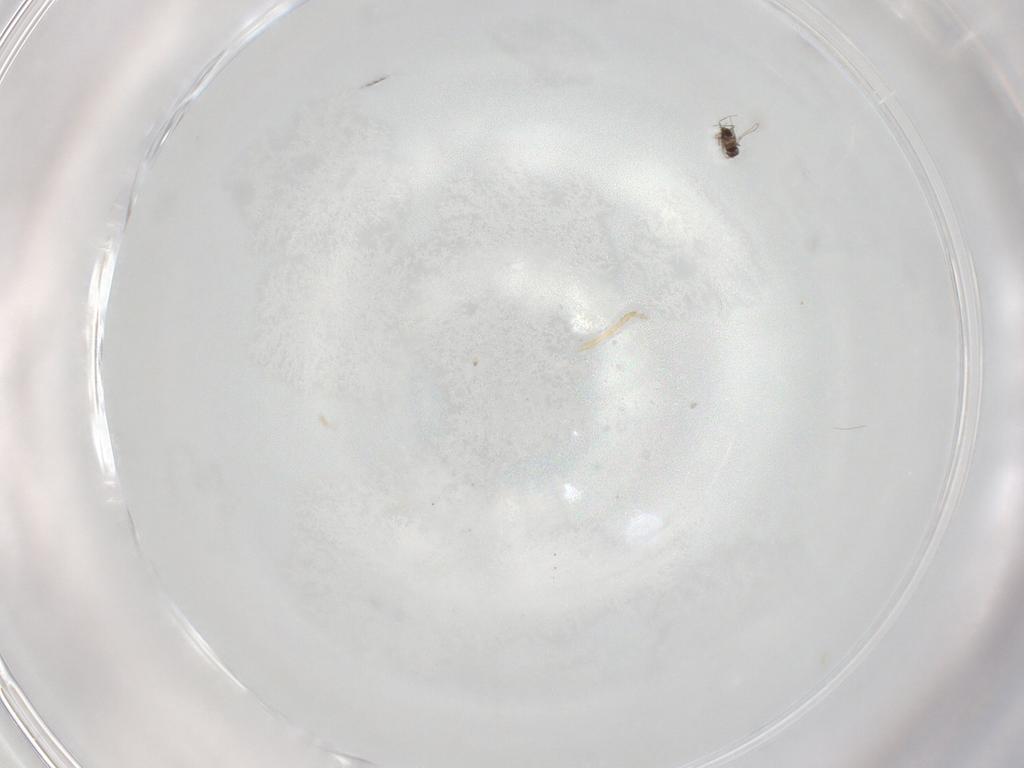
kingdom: Animalia
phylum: Arthropoda
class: Insecta
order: Hymenoptera
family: Mymaridae
